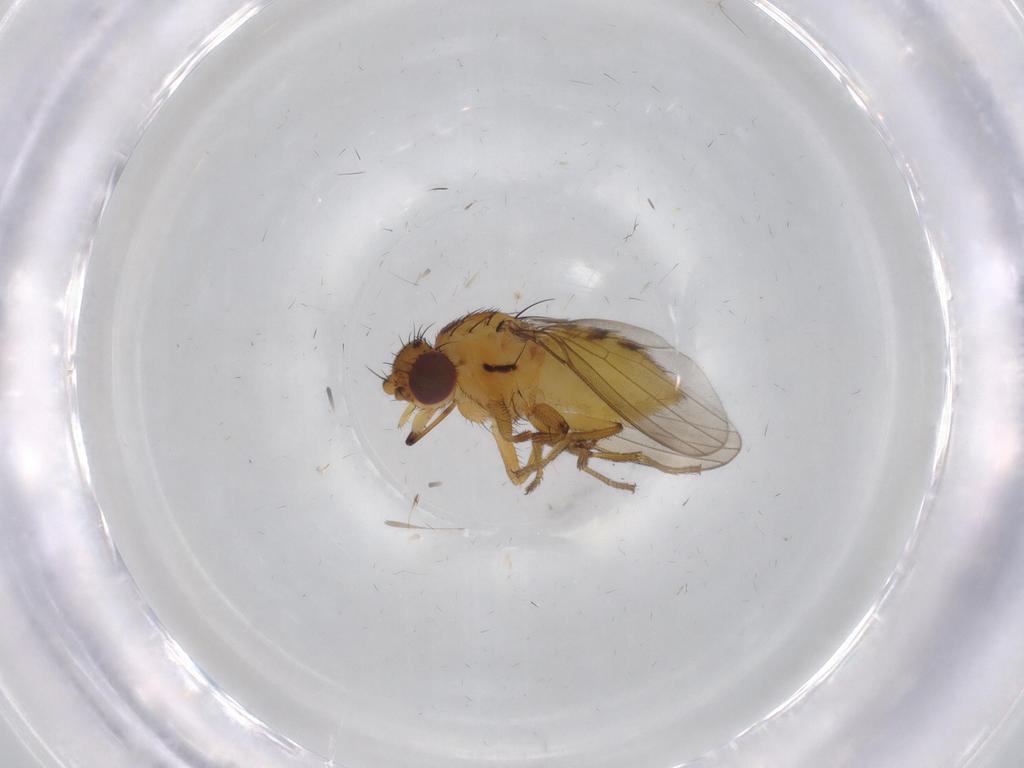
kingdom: Animalia
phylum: Arthropoda
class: Insecta
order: Diptera
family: Milichiidae
